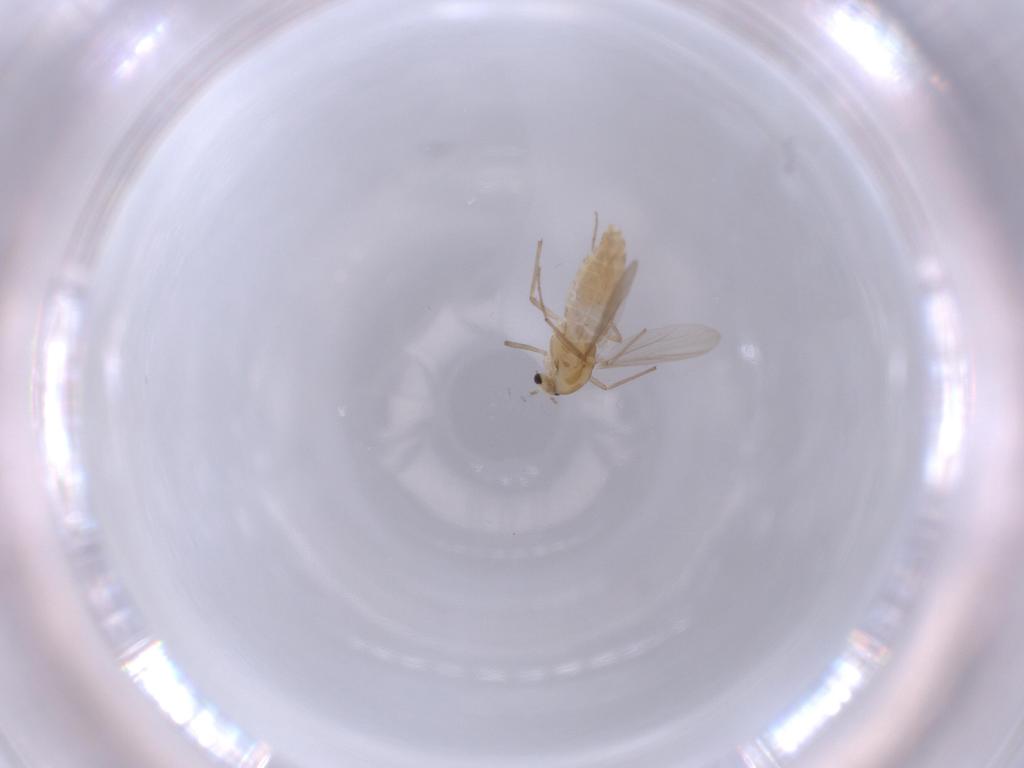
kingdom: Animalia
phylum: Arthropoda
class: Insecta
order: Diptera
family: Chironomidae
